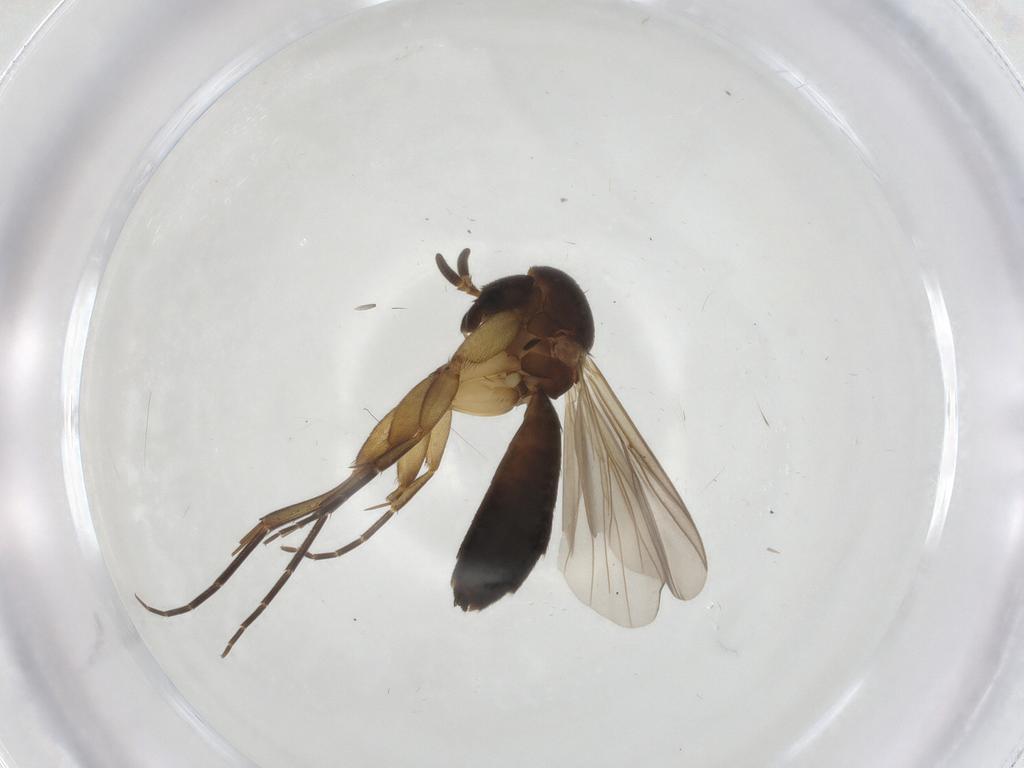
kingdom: Animalia
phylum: Arthropoda
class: Insecta
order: Diptera
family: Mycetophilidae
